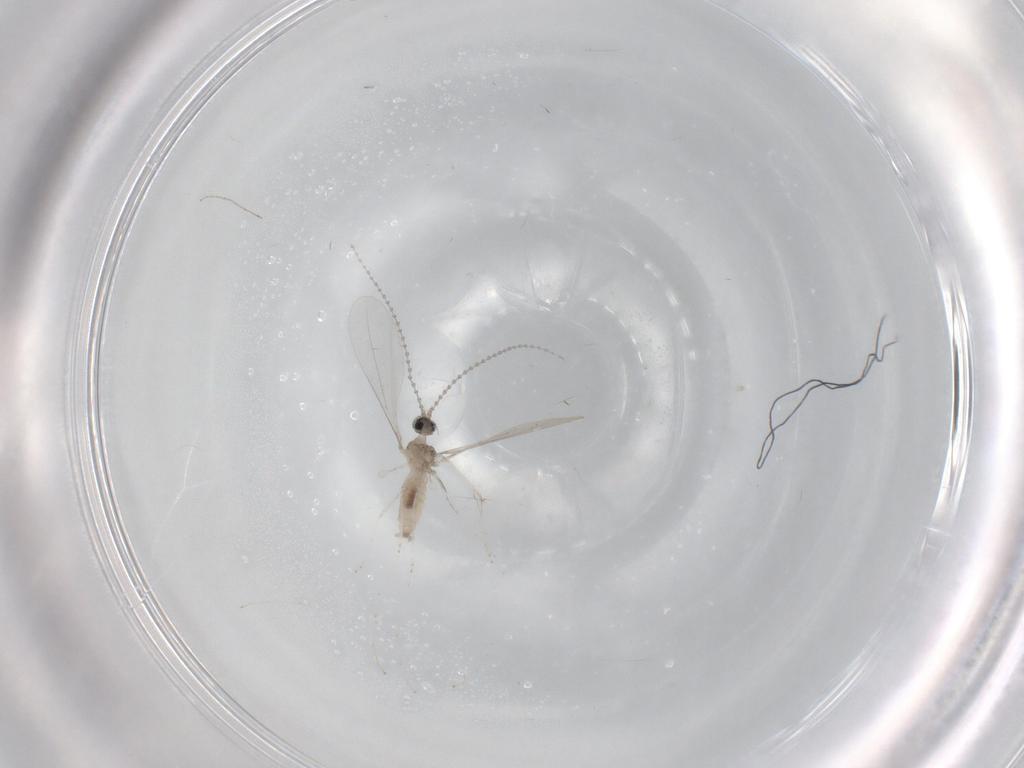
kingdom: Animalia
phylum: Arthropoda
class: Insecta
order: Diptera
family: Cecidomyiidae
